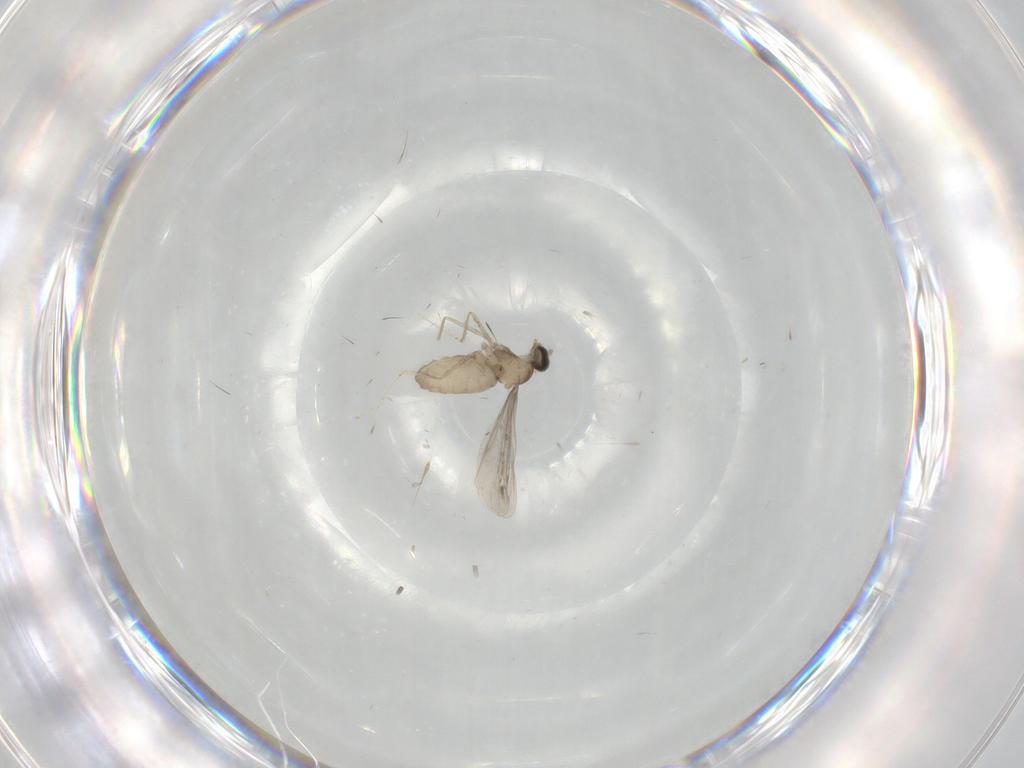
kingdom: Animalia
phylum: Arthropoda
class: Insecta
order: Diptera
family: Cecidomyiidae
